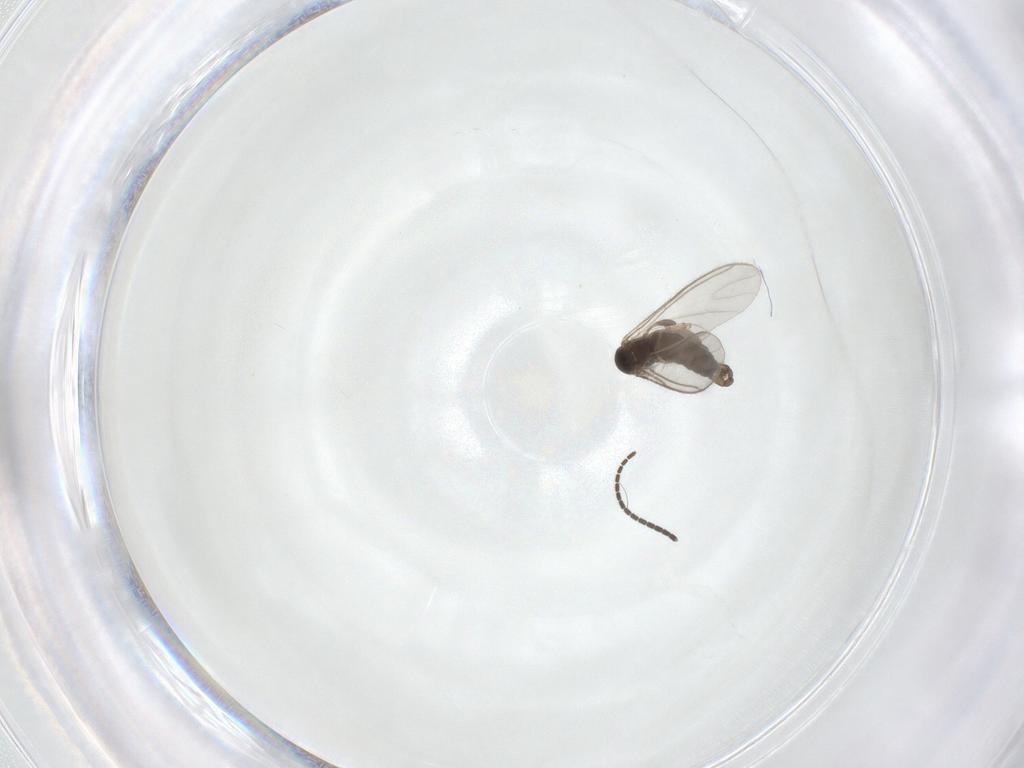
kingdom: Animalia
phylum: Arthropoda
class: Insecta
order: Diptera
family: Sciaridae
